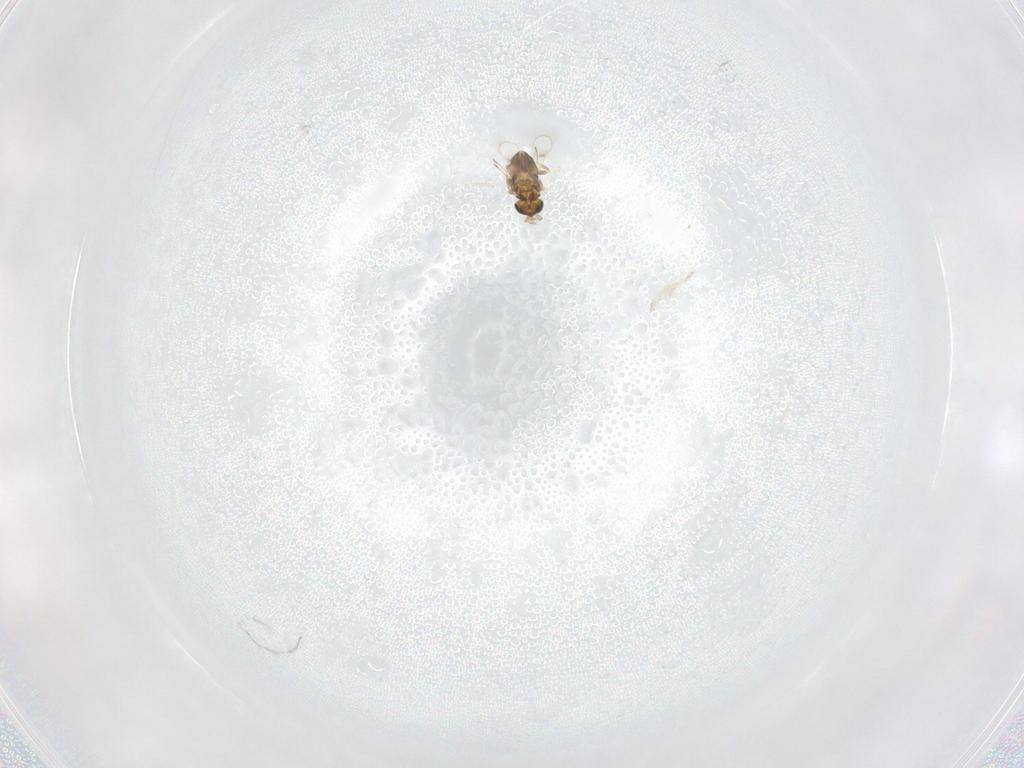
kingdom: Animalia
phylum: Arthropoda
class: Insecta
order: Hymenoptera
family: Trichogrammatidae
